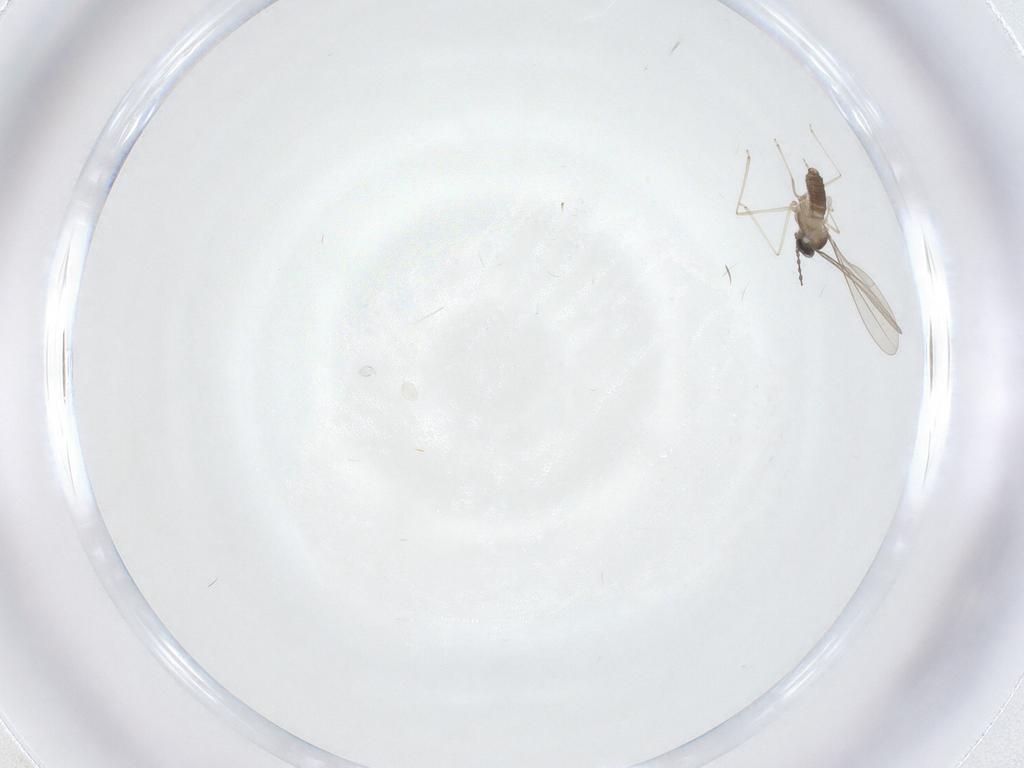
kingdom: Animalia
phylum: Arthropoda
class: Insecta
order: Diptera
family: Cecidomyiidae
